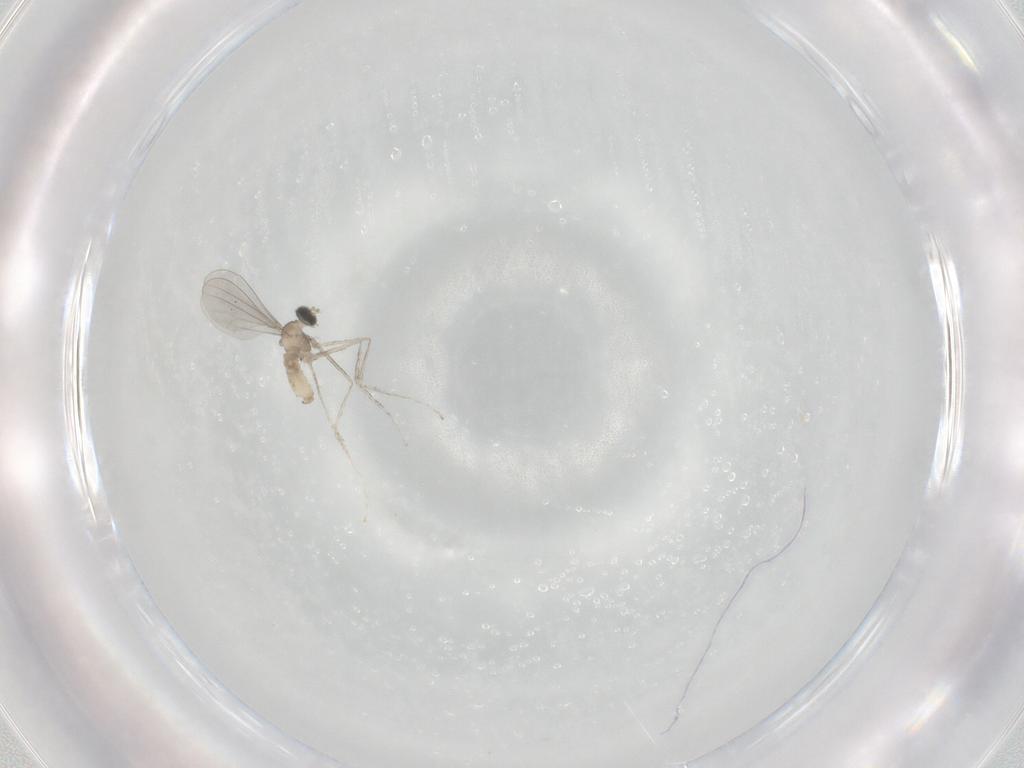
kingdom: Animalia
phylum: Arthropoda
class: Insecta
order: Diptera
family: Cecidomyiidae
